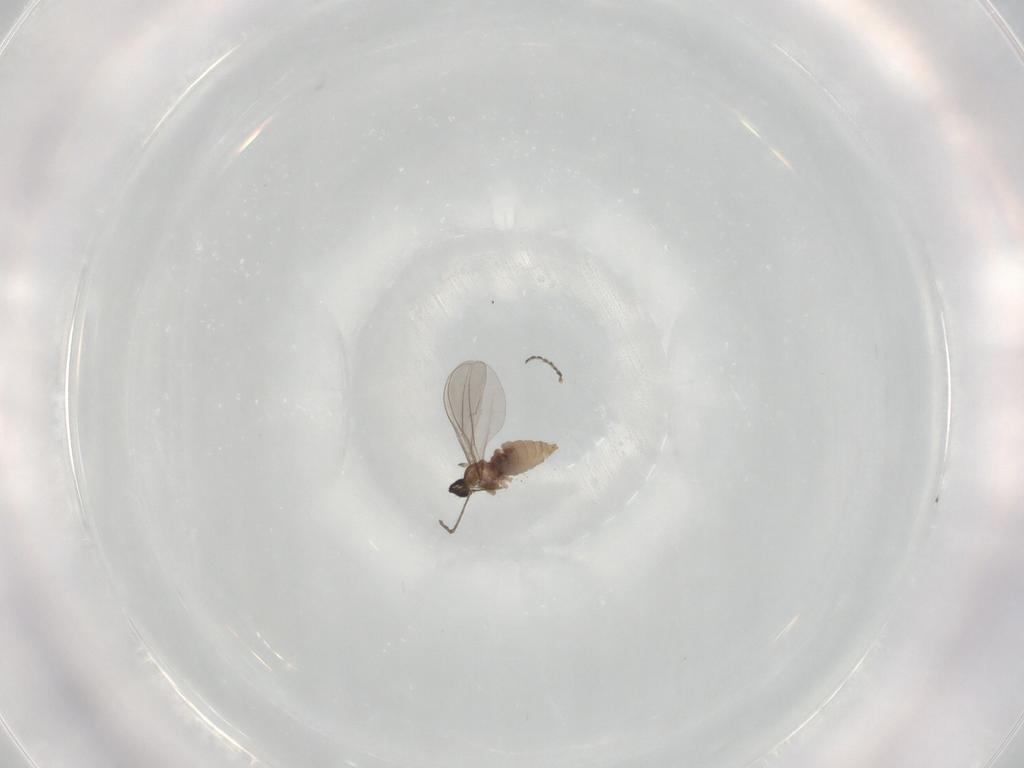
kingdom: Animalia
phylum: Arthropoda
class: Insecta
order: Diptera
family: Cecidomyiidae
